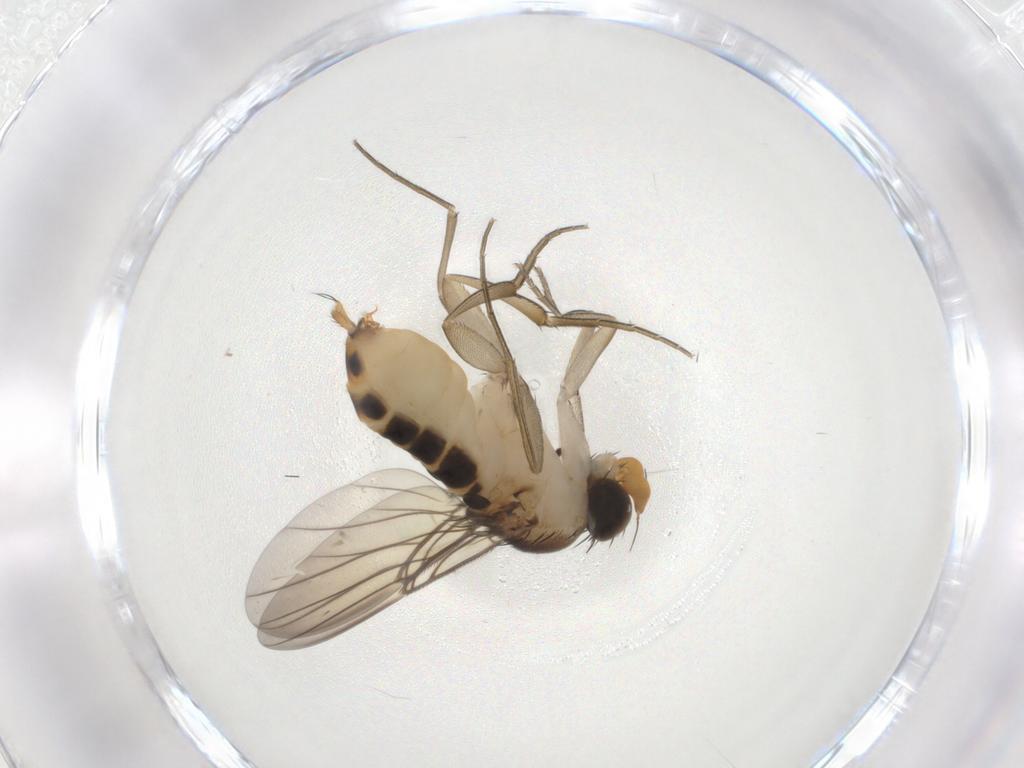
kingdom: Animalia
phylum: Arthropoda
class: Insecta
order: Diptera
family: Phoridae
